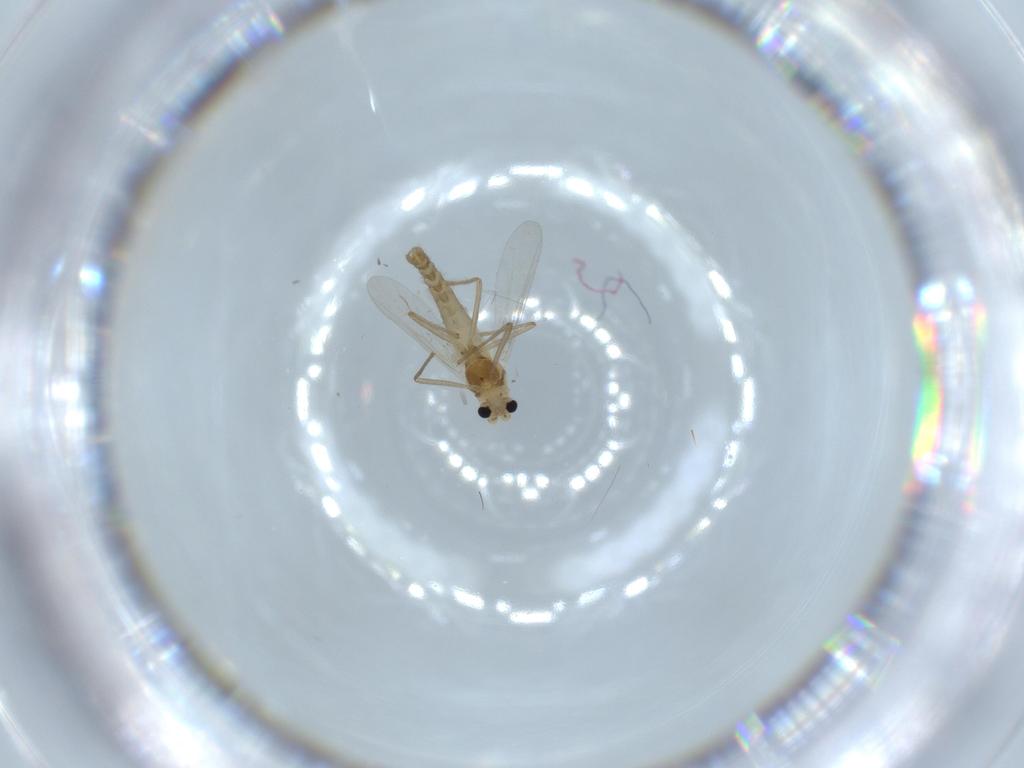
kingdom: Animalia
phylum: Arthropoda
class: Insecta
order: Diptera
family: Chironomidae
